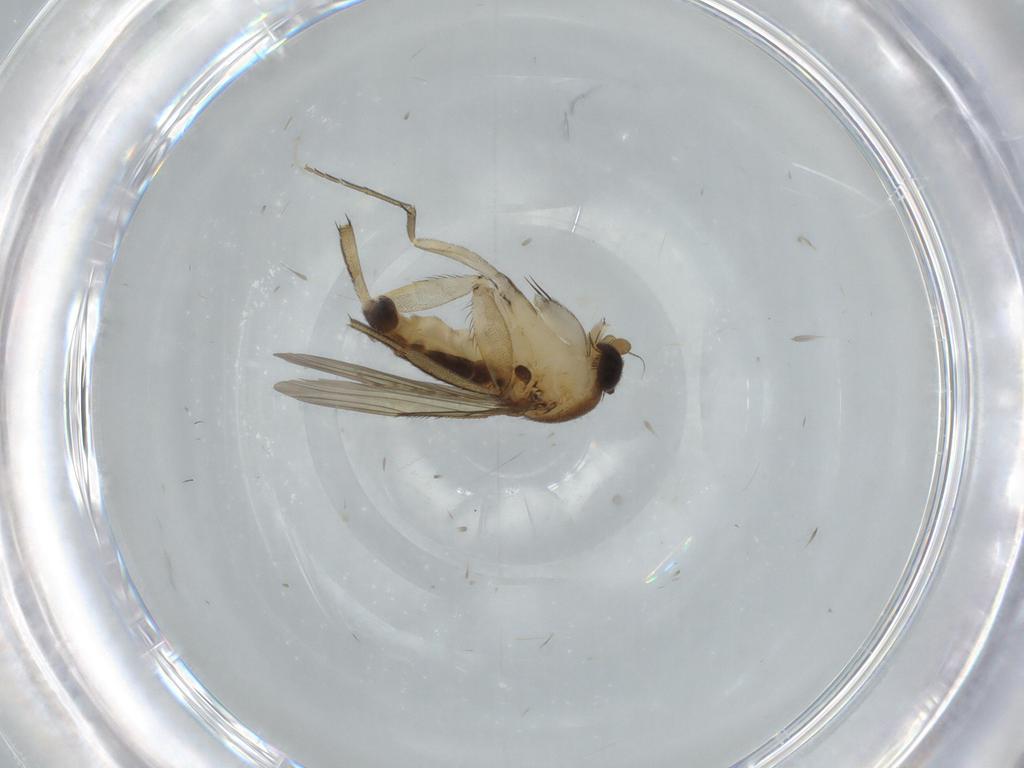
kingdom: Animalia
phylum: Arthropoda
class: Insecta
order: Diptera
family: Phoridae
